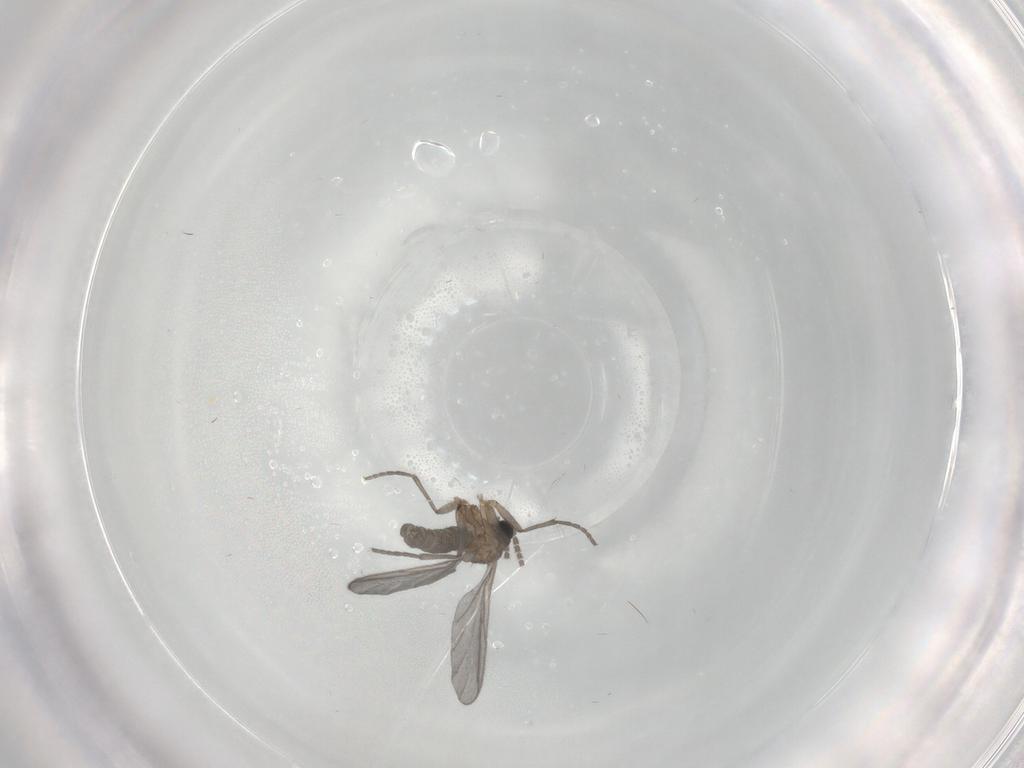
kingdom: Animalia
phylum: Arthropoda
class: Insecta
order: Diptera
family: Sciaridae
